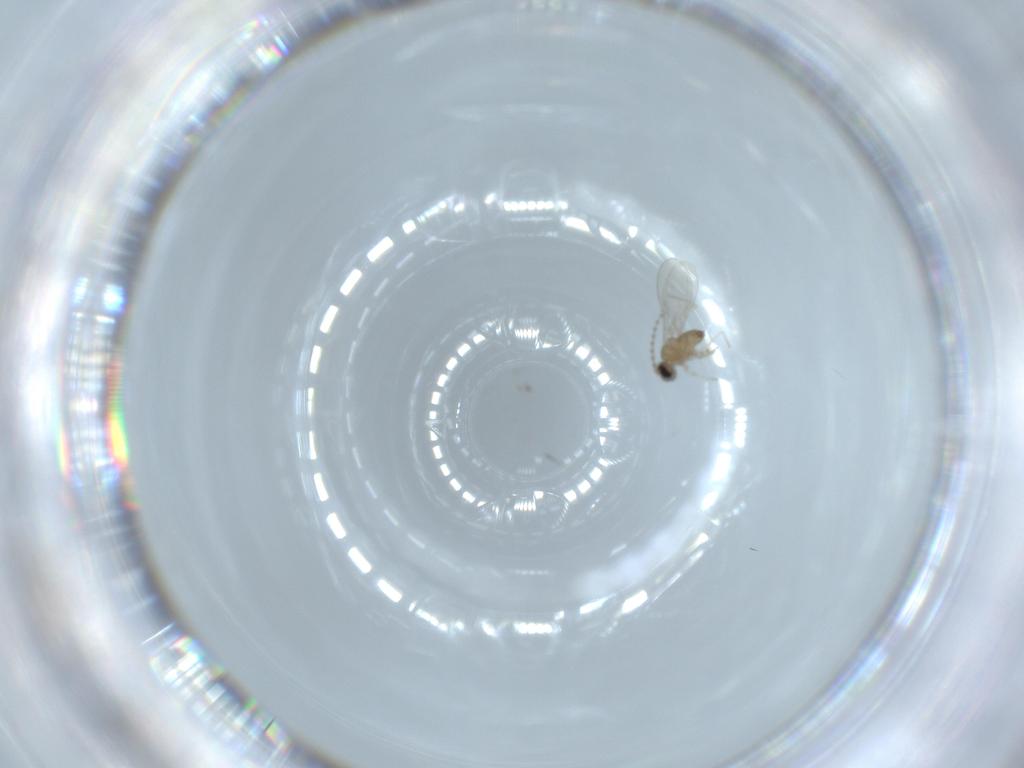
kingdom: Animalia
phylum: Arthropoda
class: Insecta
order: Diptera
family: Cecidomyiidae
